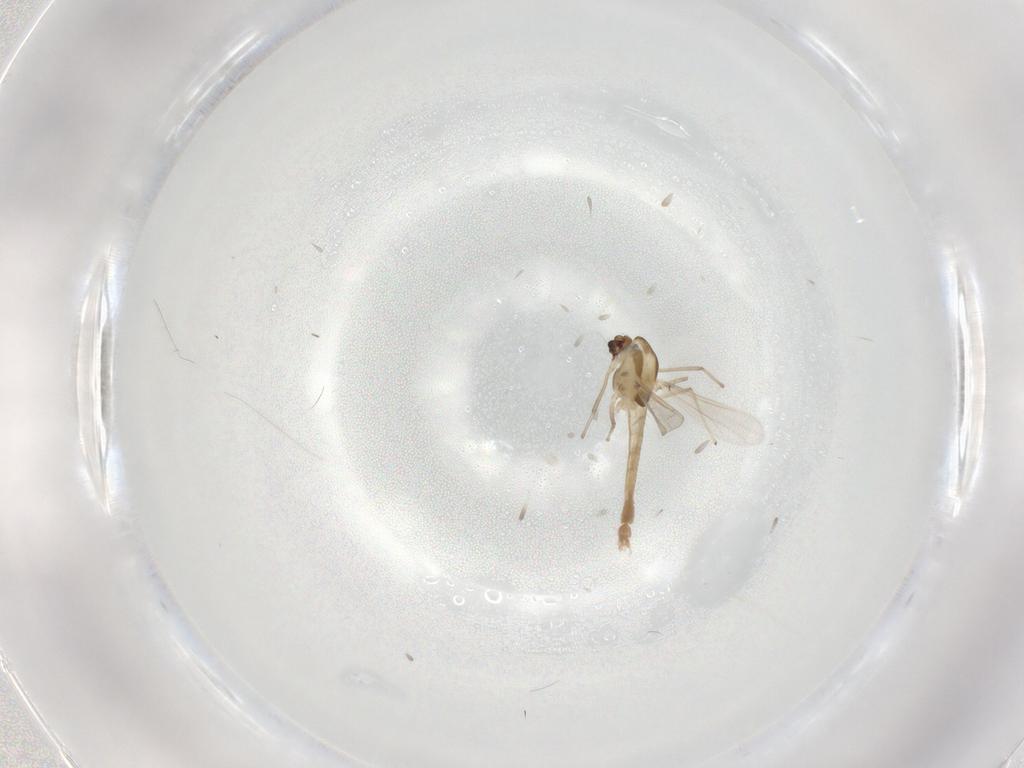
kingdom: Animalia
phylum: Arthropoda
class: Insecta
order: Diptera
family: Chironomidae
